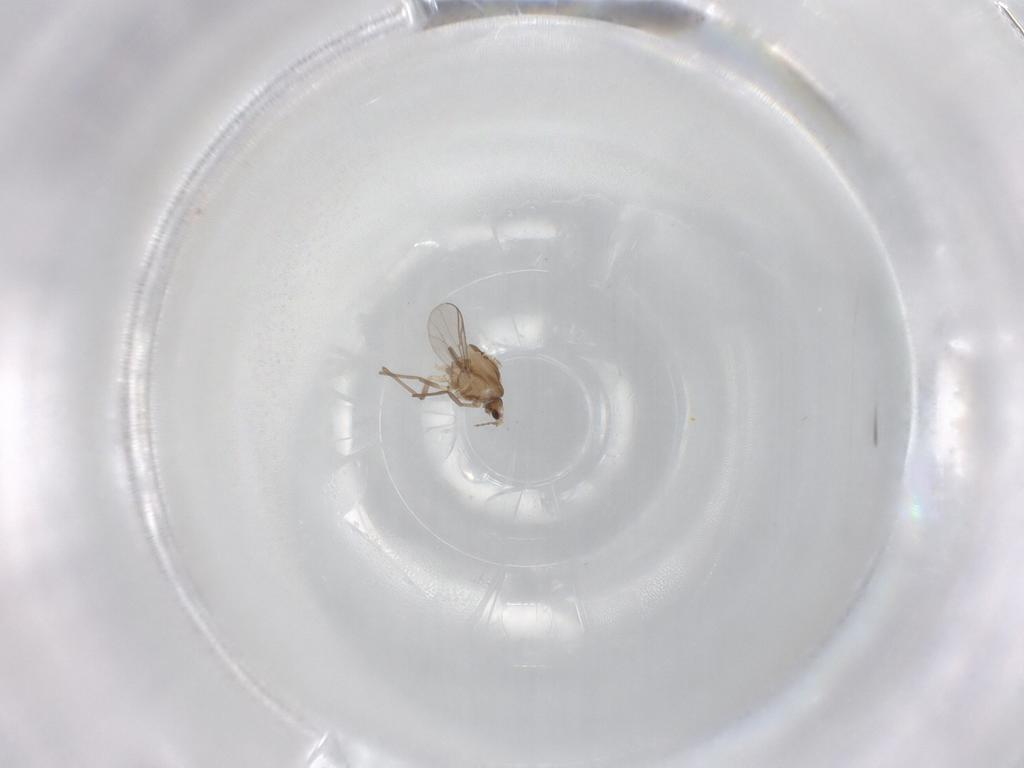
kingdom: Animalia
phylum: Arthropoda
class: Insecta
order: Diptera
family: Chironomidae
